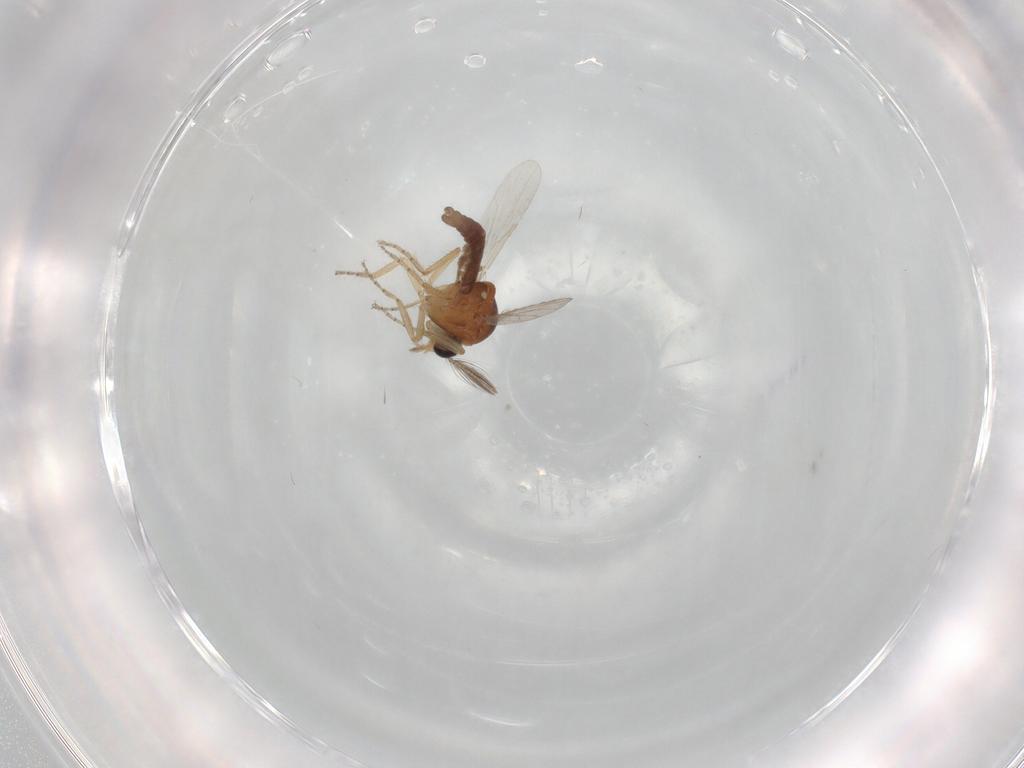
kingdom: Animalia
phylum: Arthropoda
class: Insecta
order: Diptera
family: Ceratopogonidae
